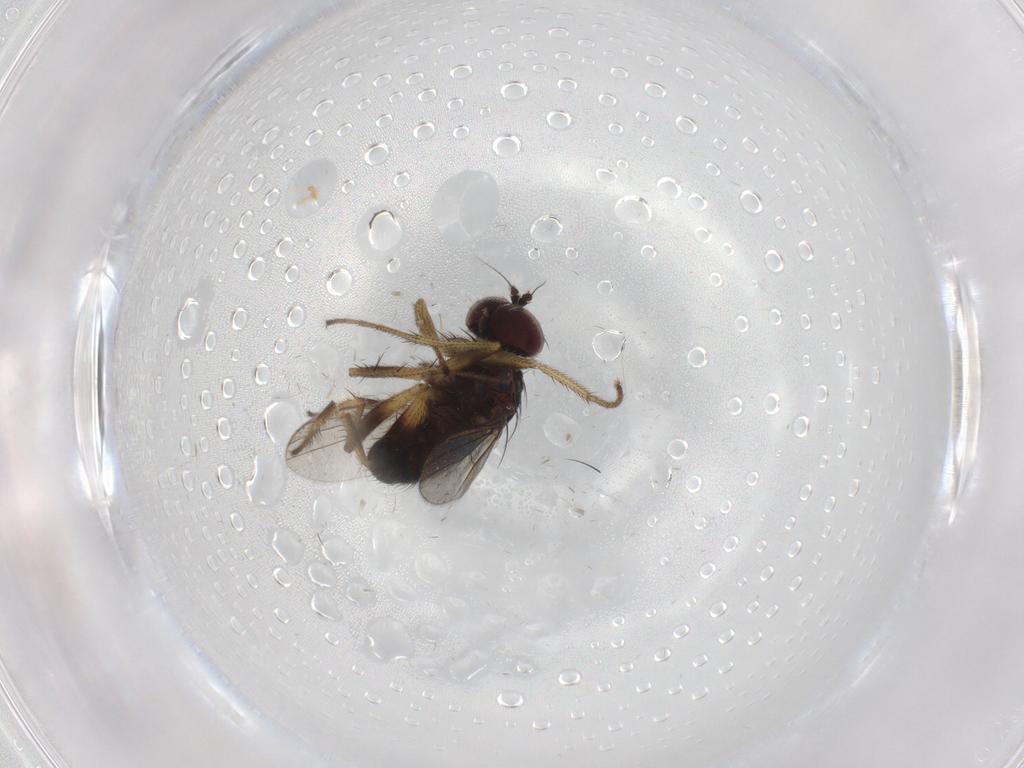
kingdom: Animalia
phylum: Arthropoda
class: Insecta
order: Diptera
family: Dolichopodidae
